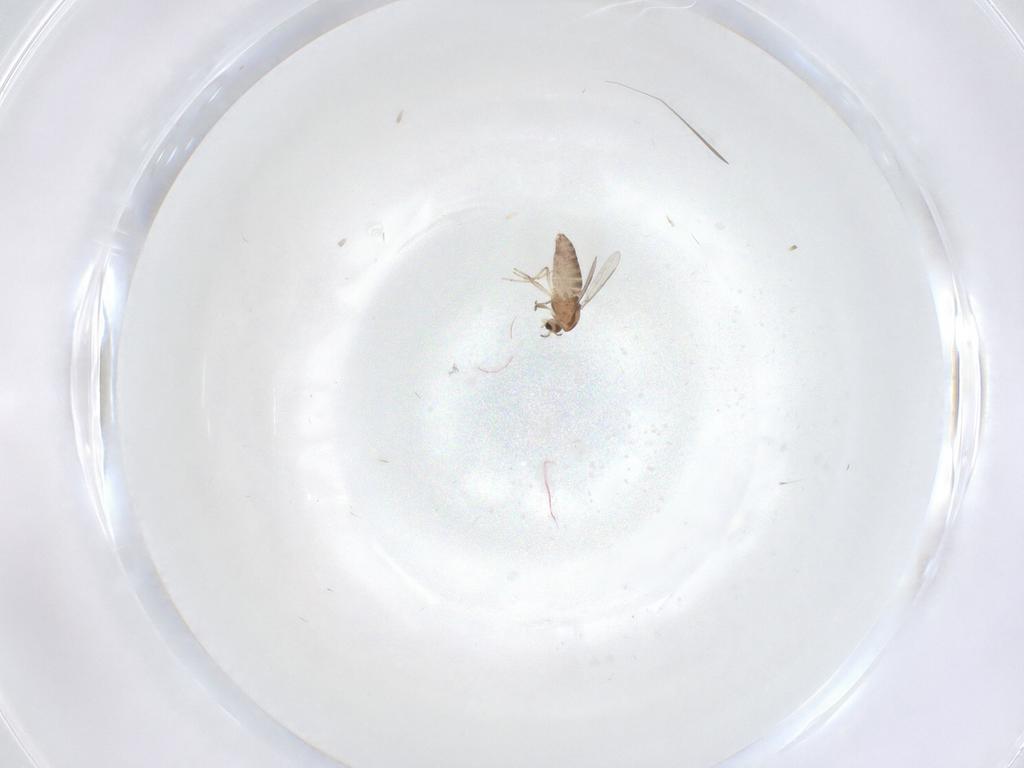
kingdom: Animalia
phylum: Arthropoda
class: Insecta
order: Diptera
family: Chironomidae
